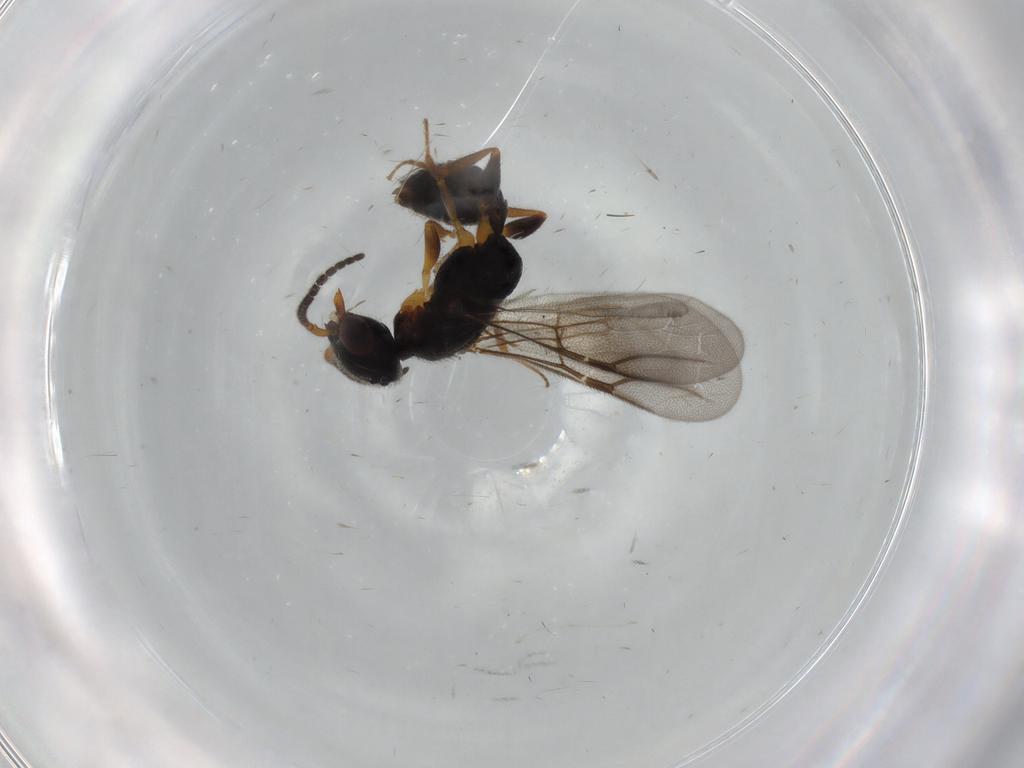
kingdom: Animalia
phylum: Arthropoda
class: Insecta
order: Hymenoptera
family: Bethylidae
